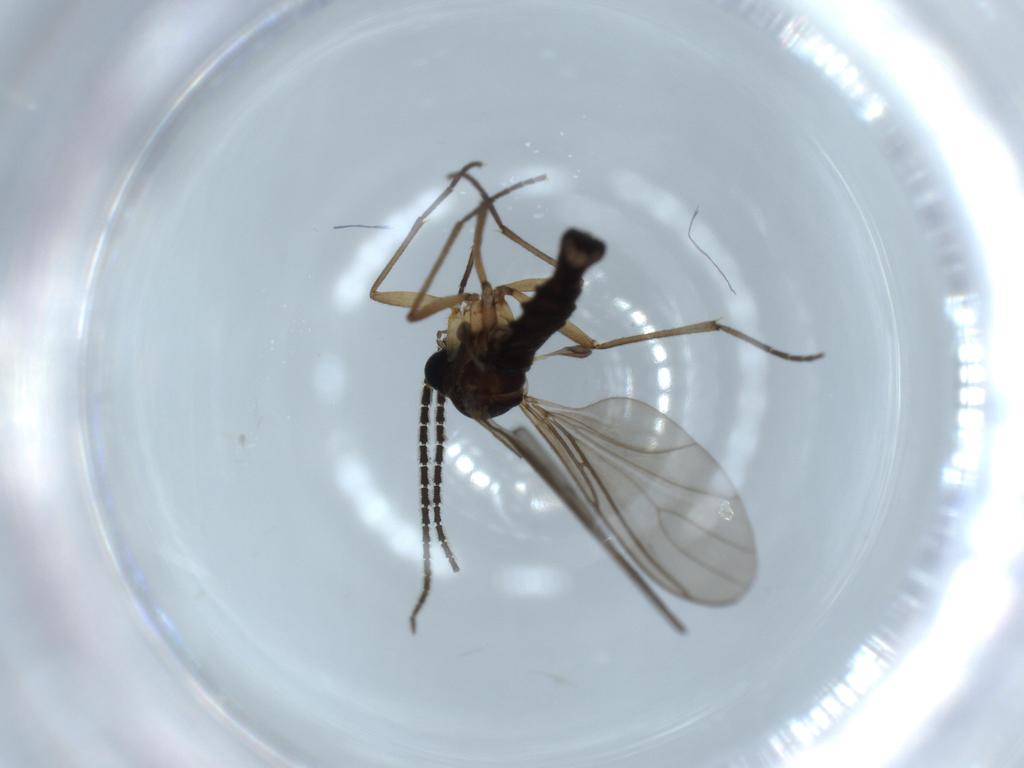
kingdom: Animalia
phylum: Arthropoda
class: Insecta
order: Diptera
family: Sciaridae
